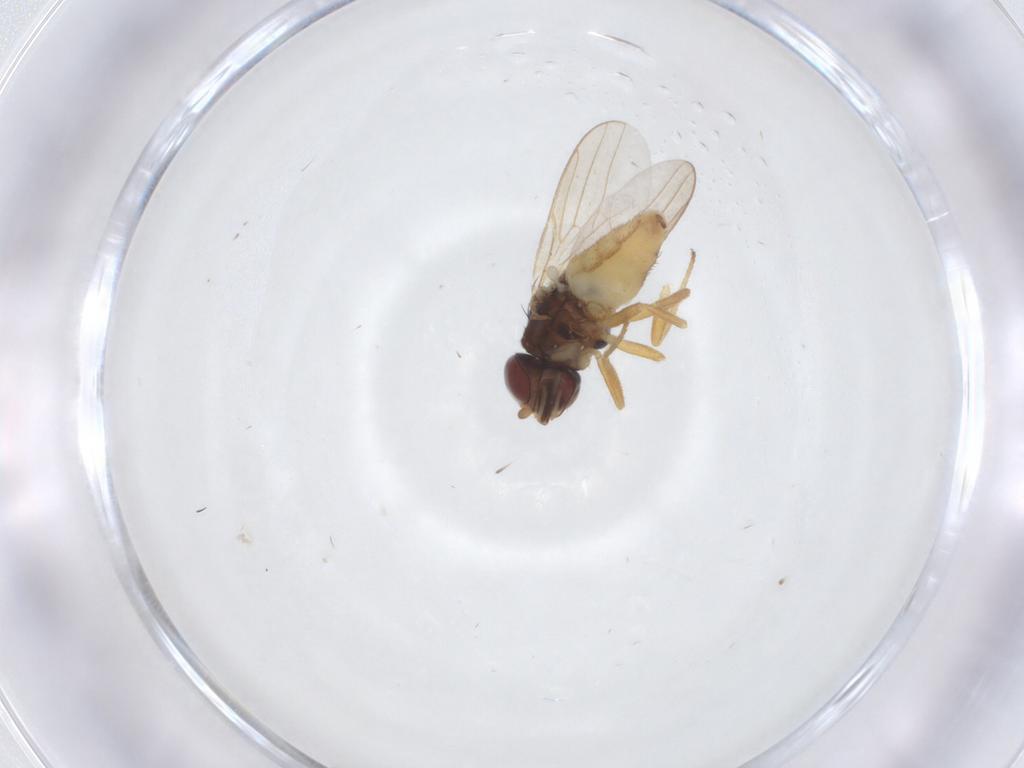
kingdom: Animalia
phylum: Arthropoda
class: Insecta
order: Diptera
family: Chloropidae
